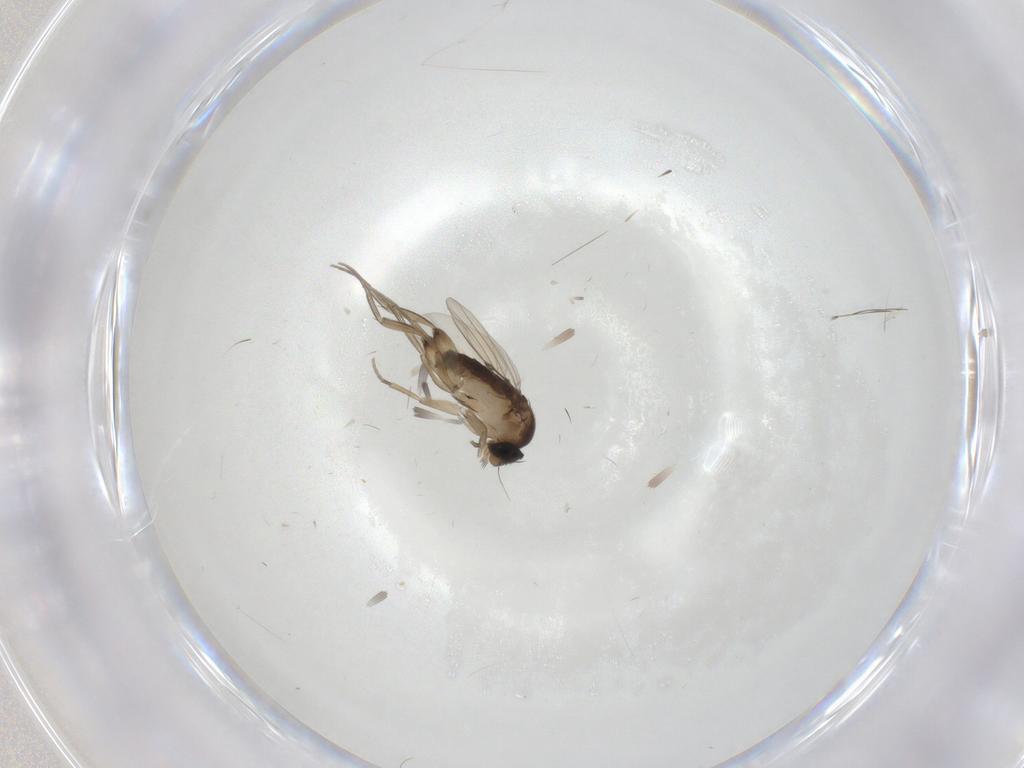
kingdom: Animalia
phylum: Arthropoda
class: Insecta
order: Diptera
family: Phoridae
